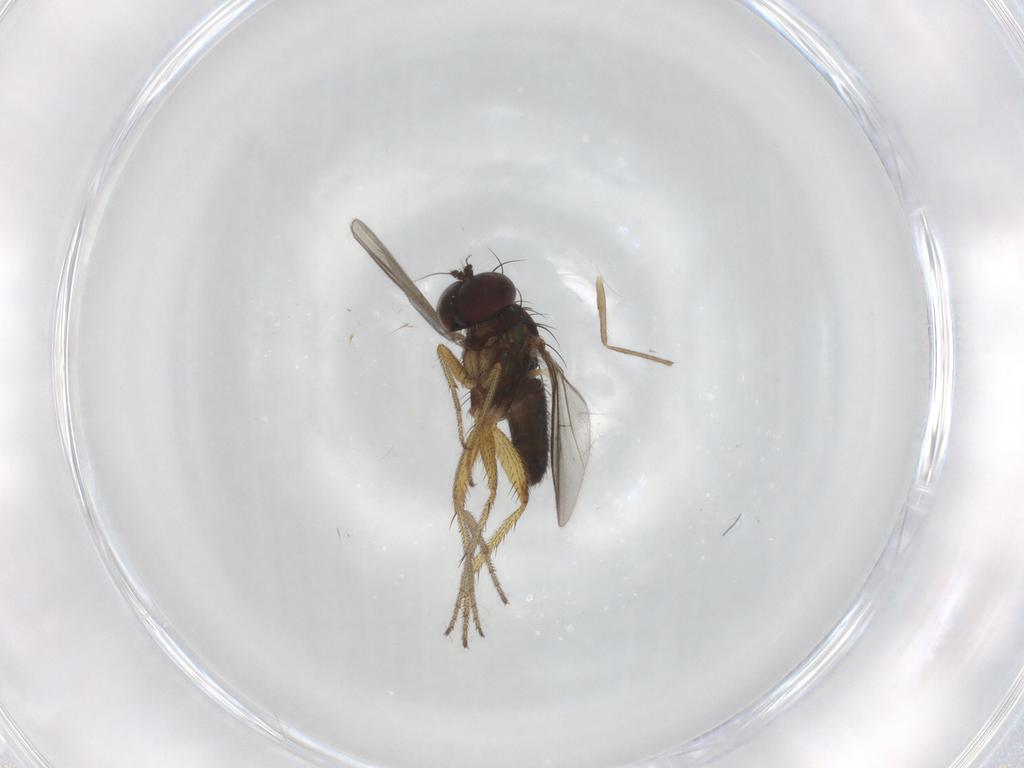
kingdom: Animalia
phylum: Arthropoda
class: Insecta
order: Diptera
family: Dolichopodidae
